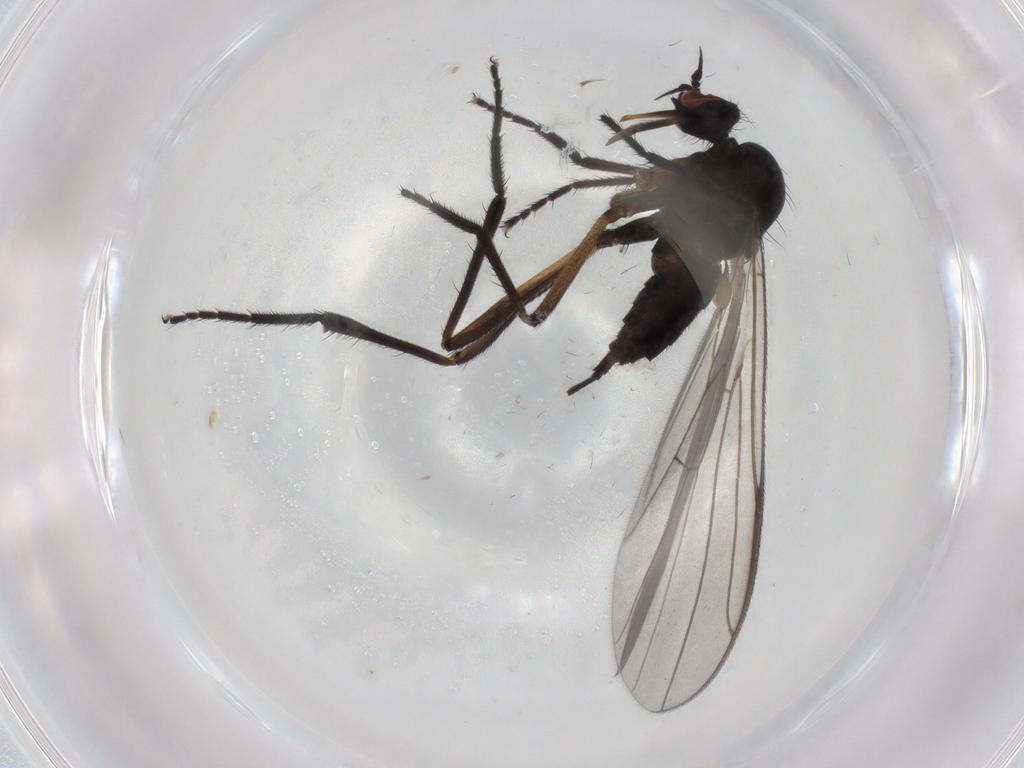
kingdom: Animalia
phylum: Arthropoda
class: Insecta
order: Diptera
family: Empididae
